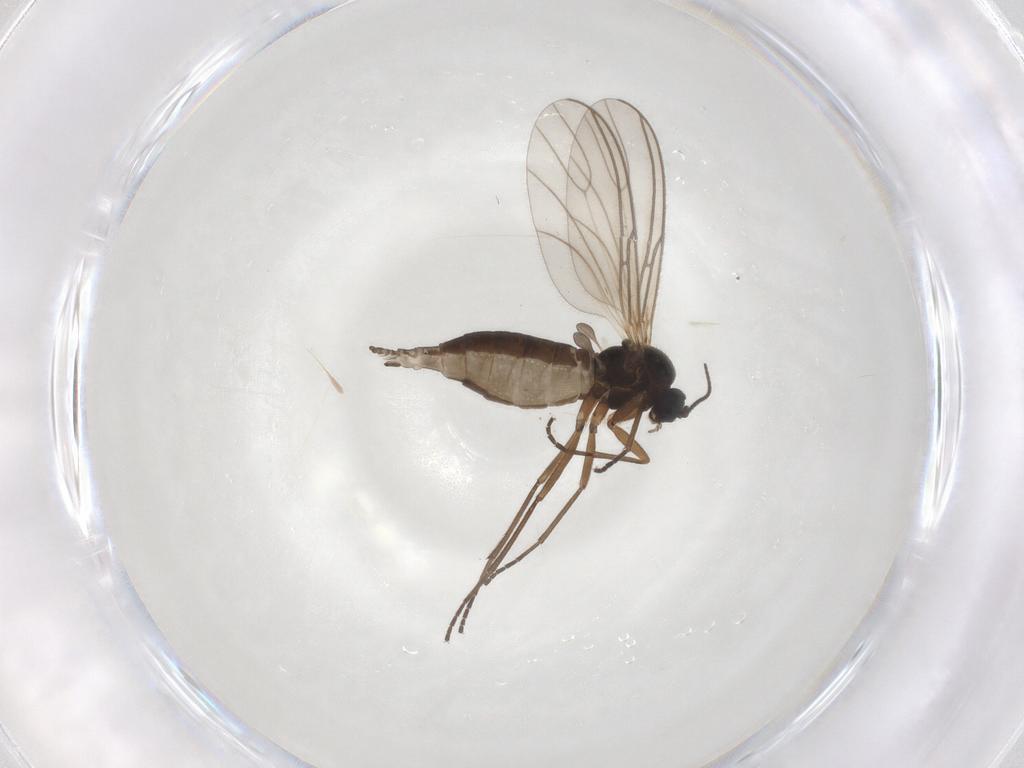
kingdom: Animalia
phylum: Arthropoda
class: Insecta
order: Diptera
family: Sciaridae
